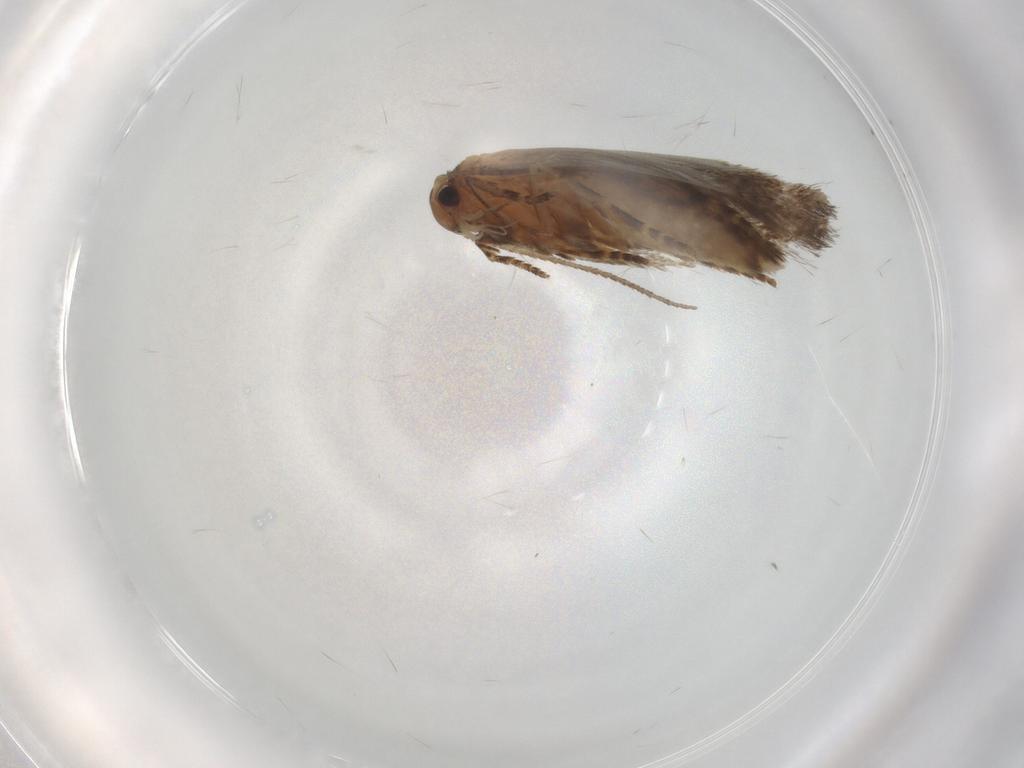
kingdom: Animalia
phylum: Arthropoda
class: Insecta
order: Lepidoptera
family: Elachistidae
